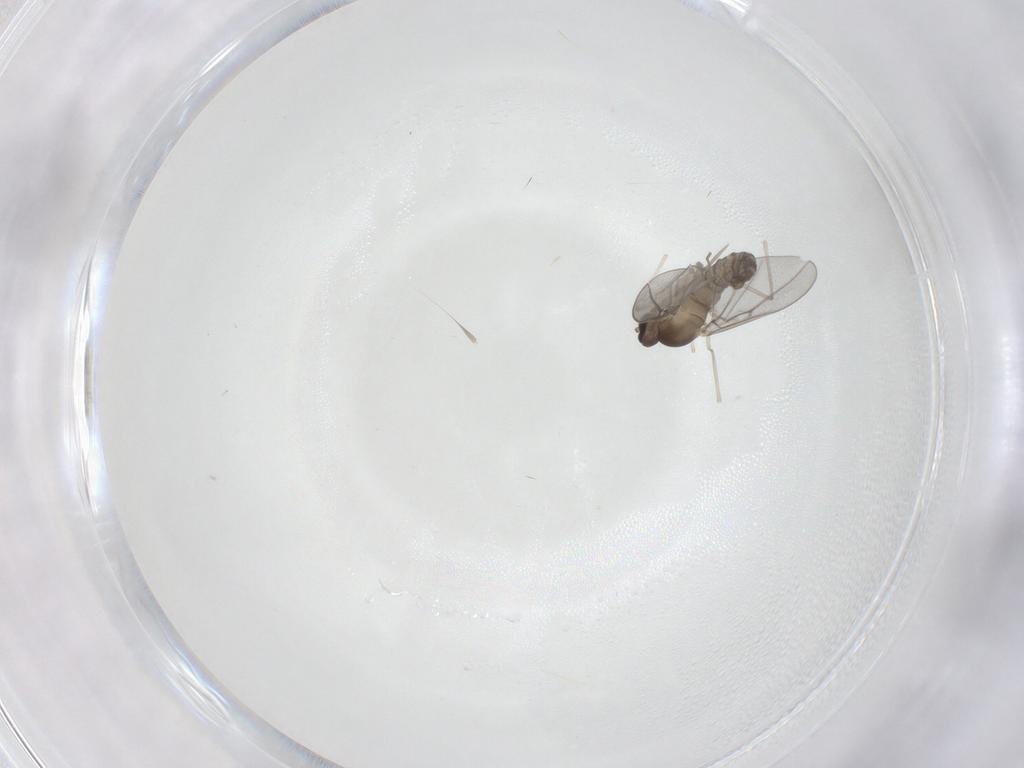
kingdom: Animalia
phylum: Arthropoda
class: Insecta
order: Diptera
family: Cecidomyiidae
